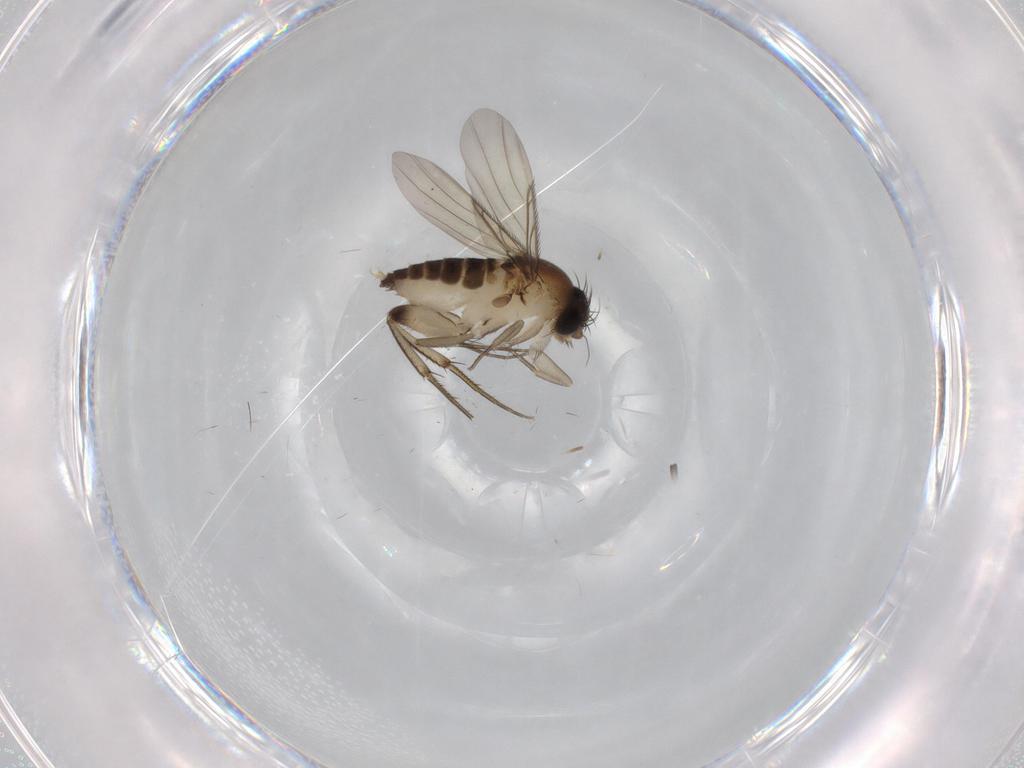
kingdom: Animalia
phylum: Arthropoda
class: Insecta
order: Diptera
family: Phoridae
